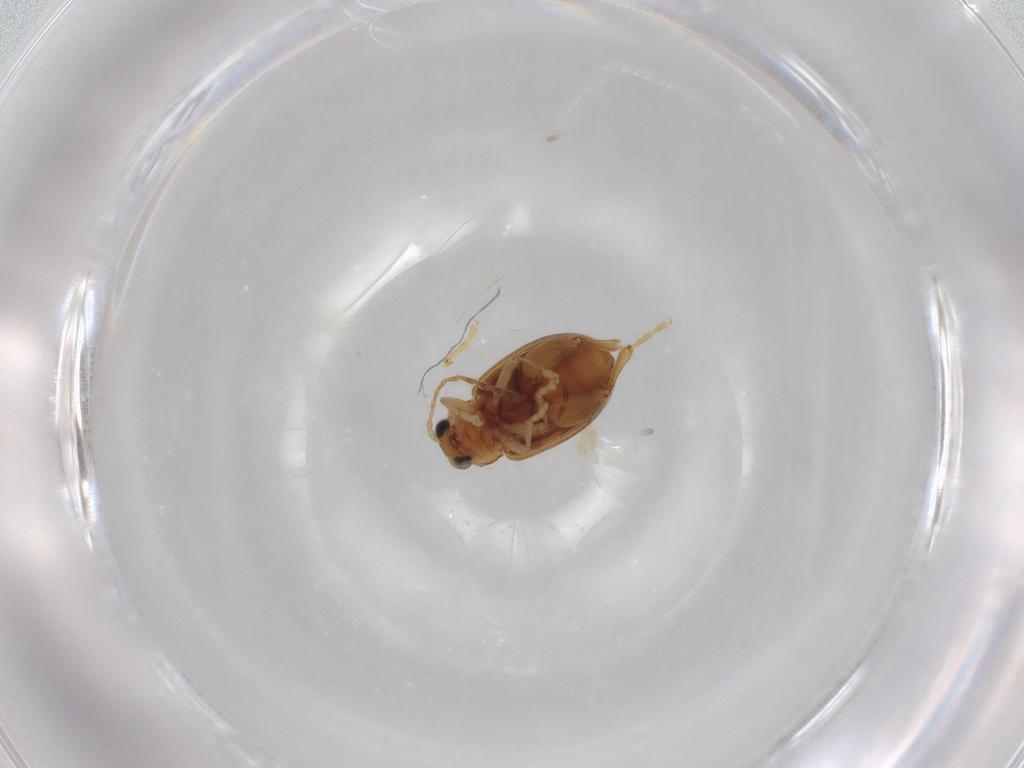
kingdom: Animalia
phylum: Arthropoda
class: Insecta
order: Coleoptera
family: Chrysomelidae
